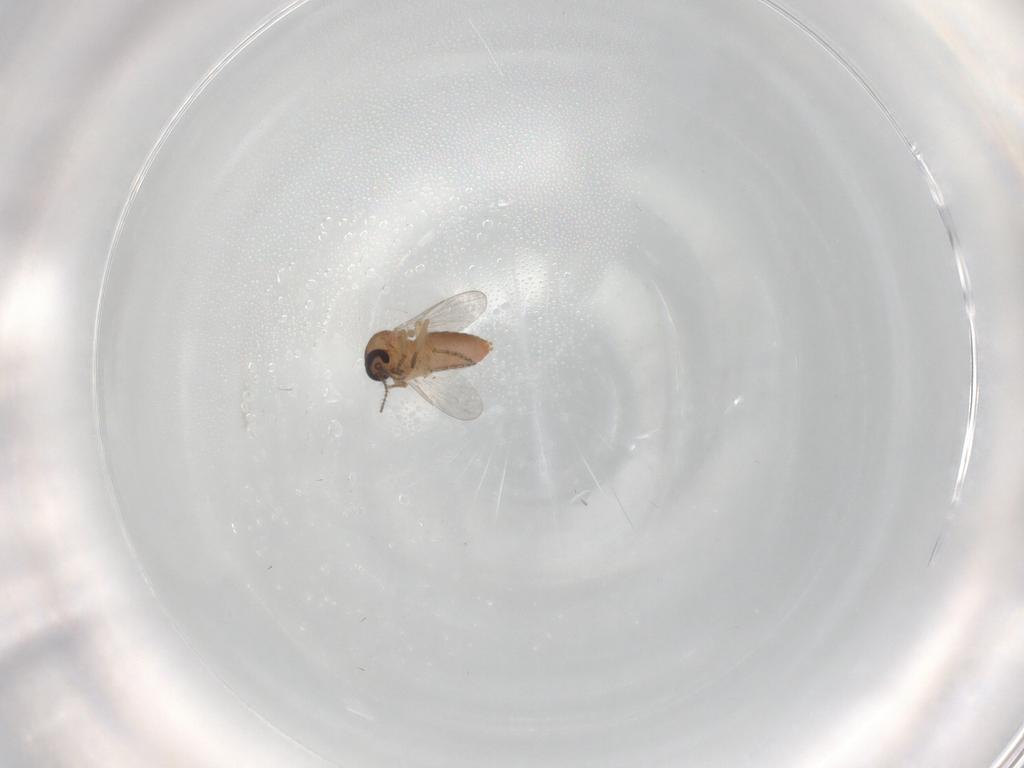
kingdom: Animalia
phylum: Arthropoda
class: Insecta
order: Diptera
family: Ceratopogonidae
